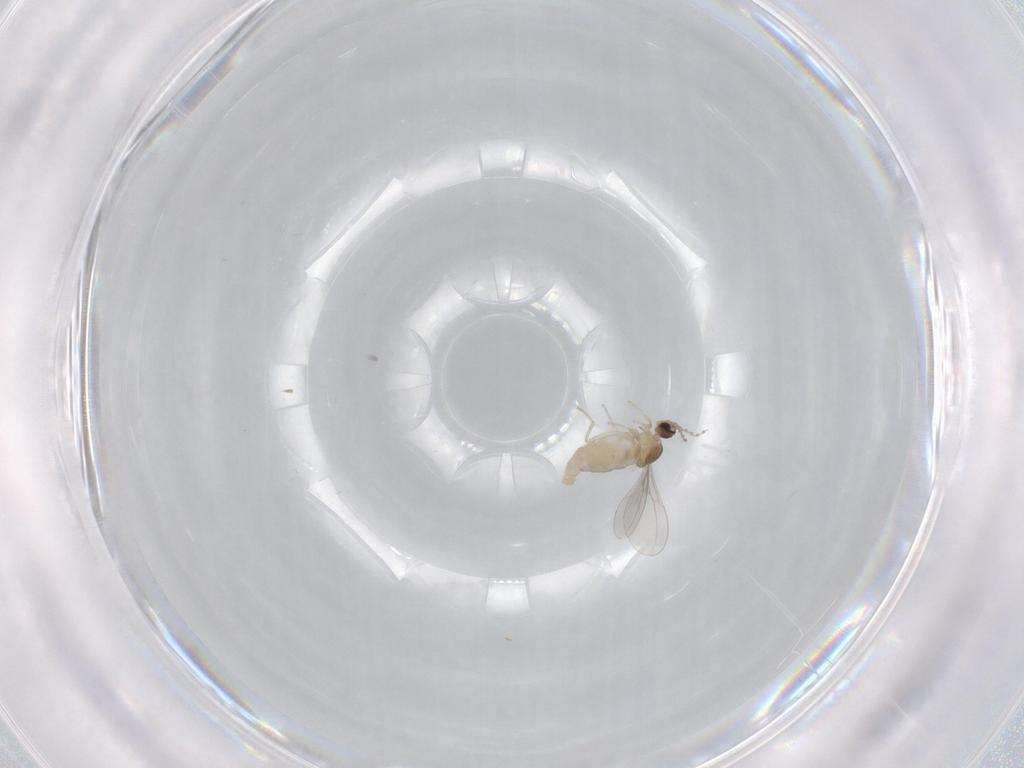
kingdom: Animalia
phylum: Arthropoda
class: Insecta
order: Diptera
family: Cecidomyiidae
